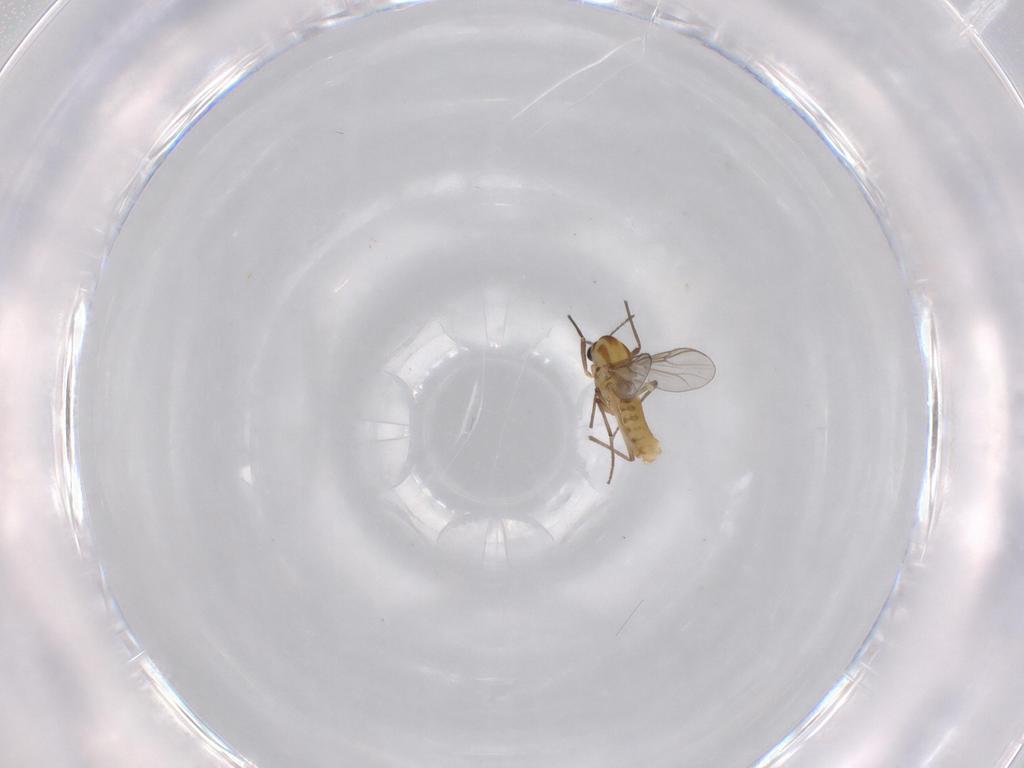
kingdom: Animalia
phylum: Arthropoda
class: Insecta
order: Diptera
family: Chironomidae
